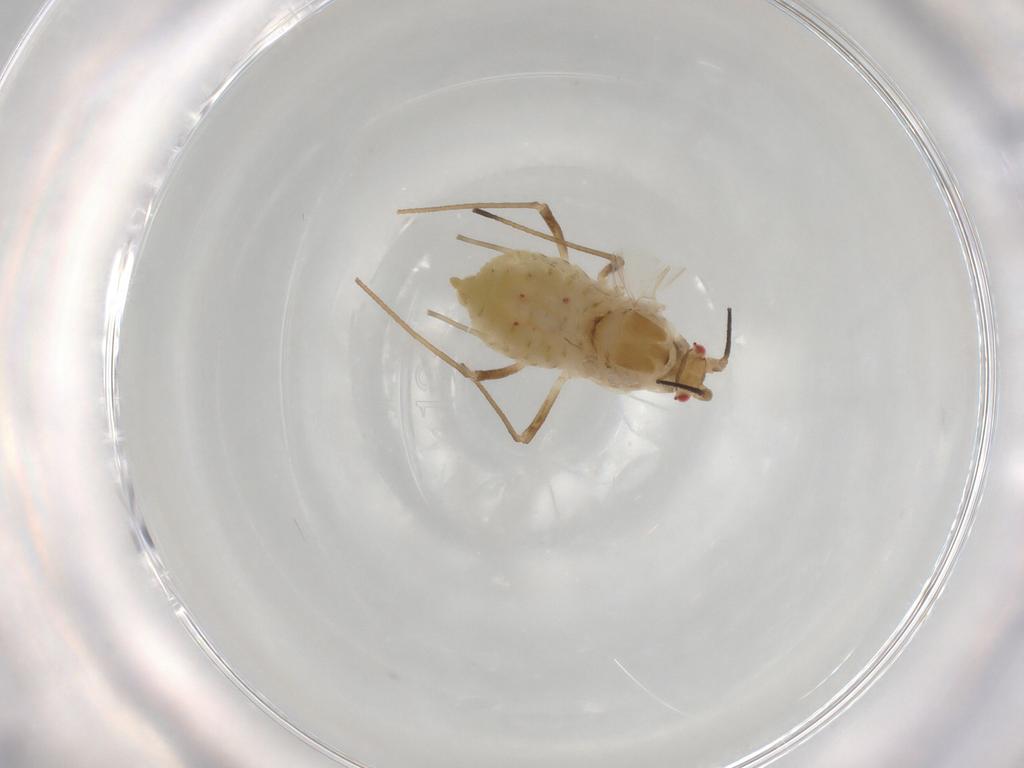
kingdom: Animalia
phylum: Arthropoda
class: Insecta
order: Hemiptera
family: Aphididae
